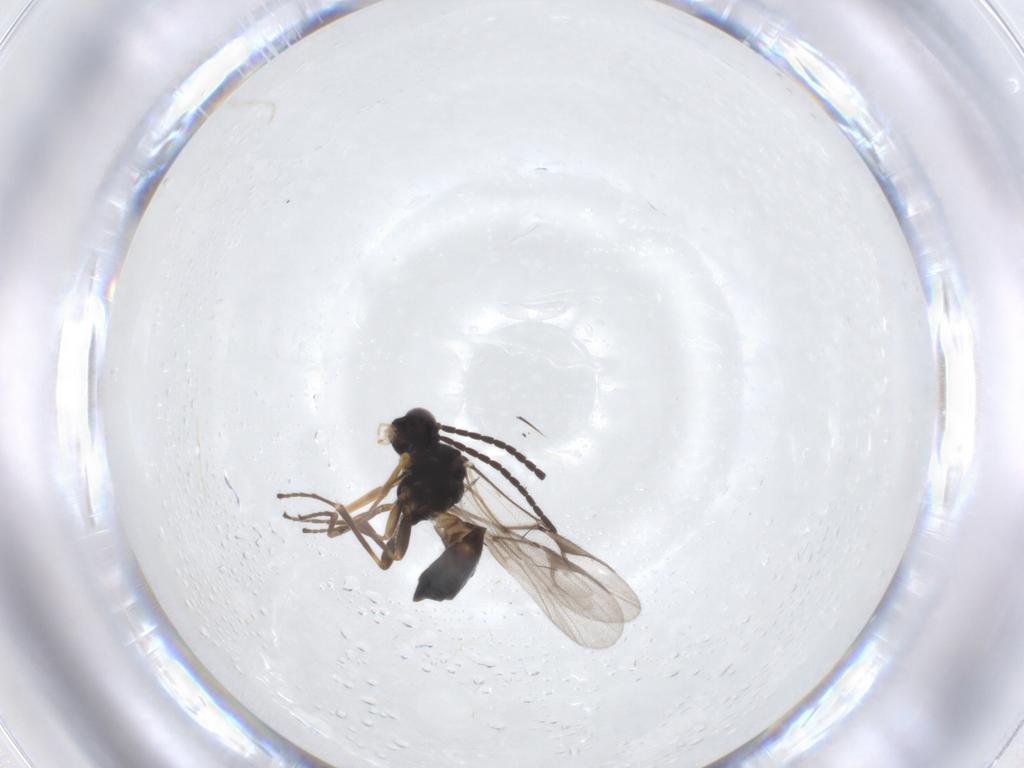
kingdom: Animalia
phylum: Arthropoda
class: Insecta
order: Hymenoptera
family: Braconidae
